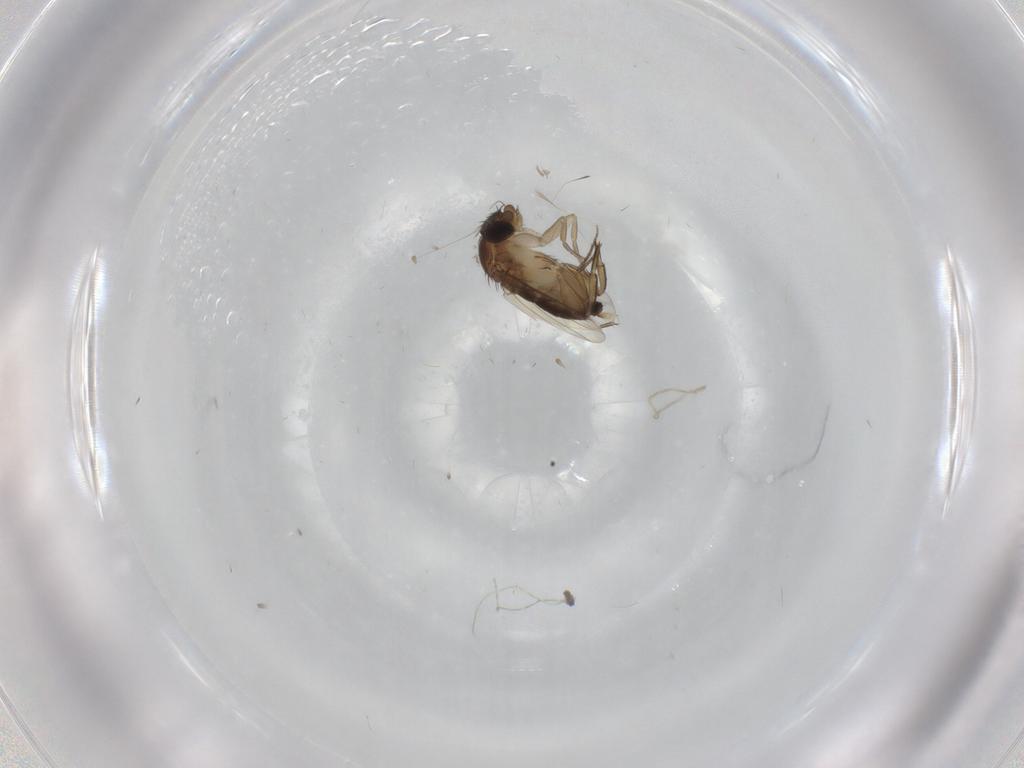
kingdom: Animalia
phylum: Arthropoda
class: Insecta
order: Diptera
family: Phoridae
